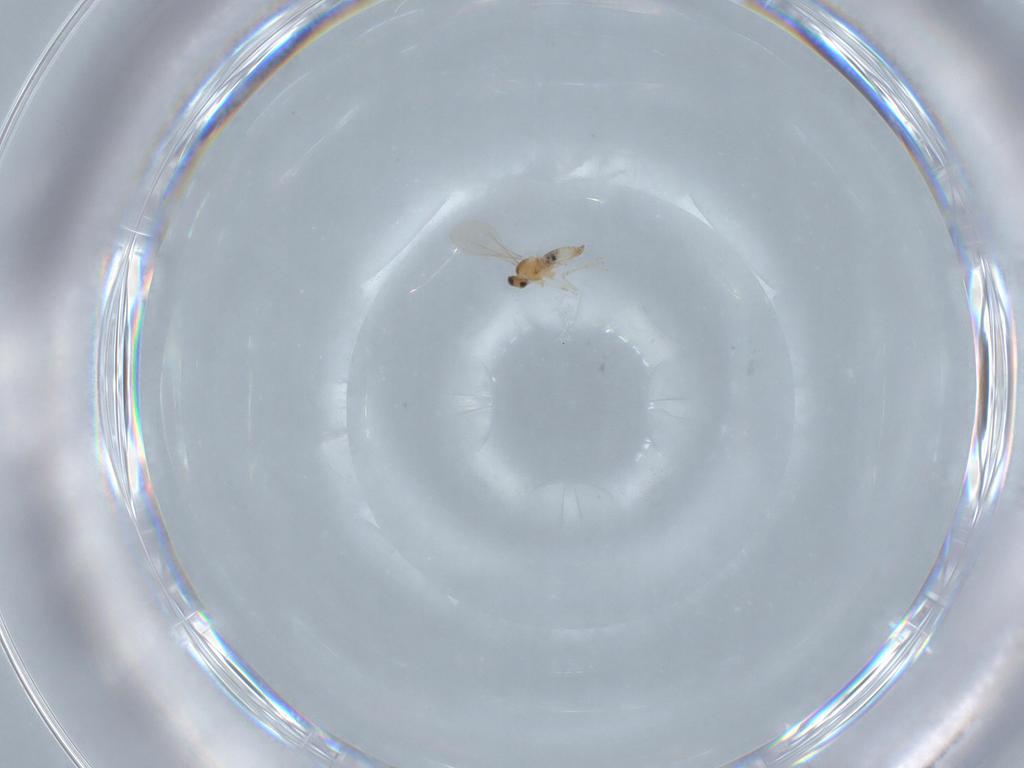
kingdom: Animalia
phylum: Arthropoda
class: Insecta
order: Diptera
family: Cecidomyiidae
